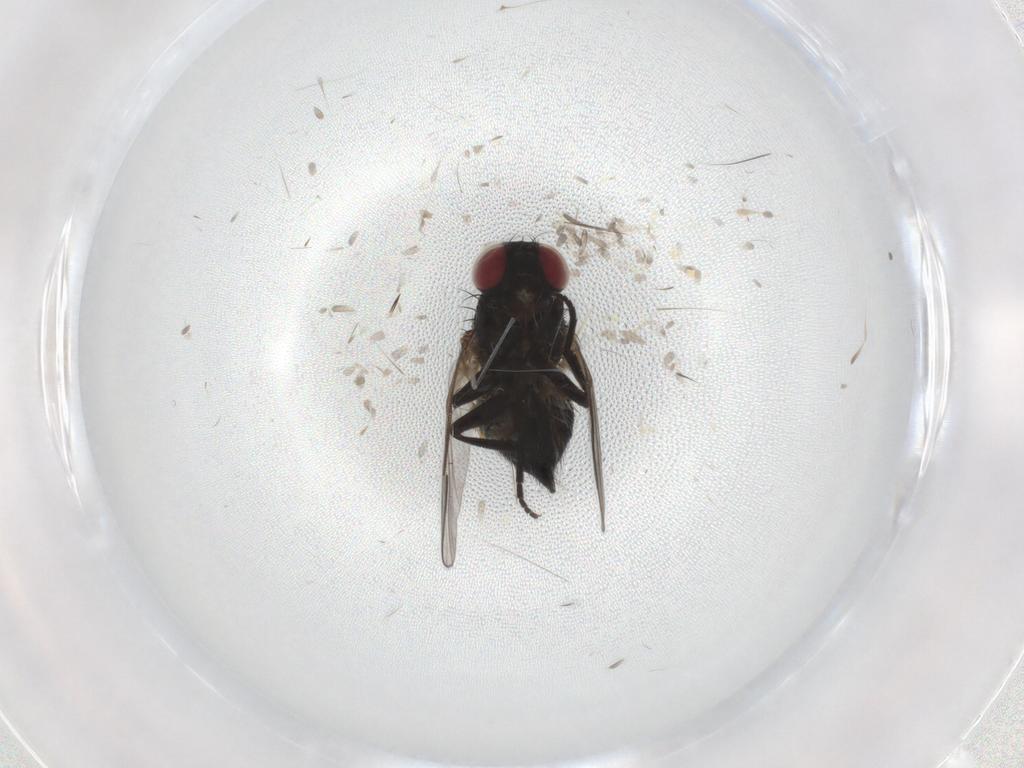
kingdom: Animalia
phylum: Arthropoda
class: Insecta
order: Diptera
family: Agromyzidae
